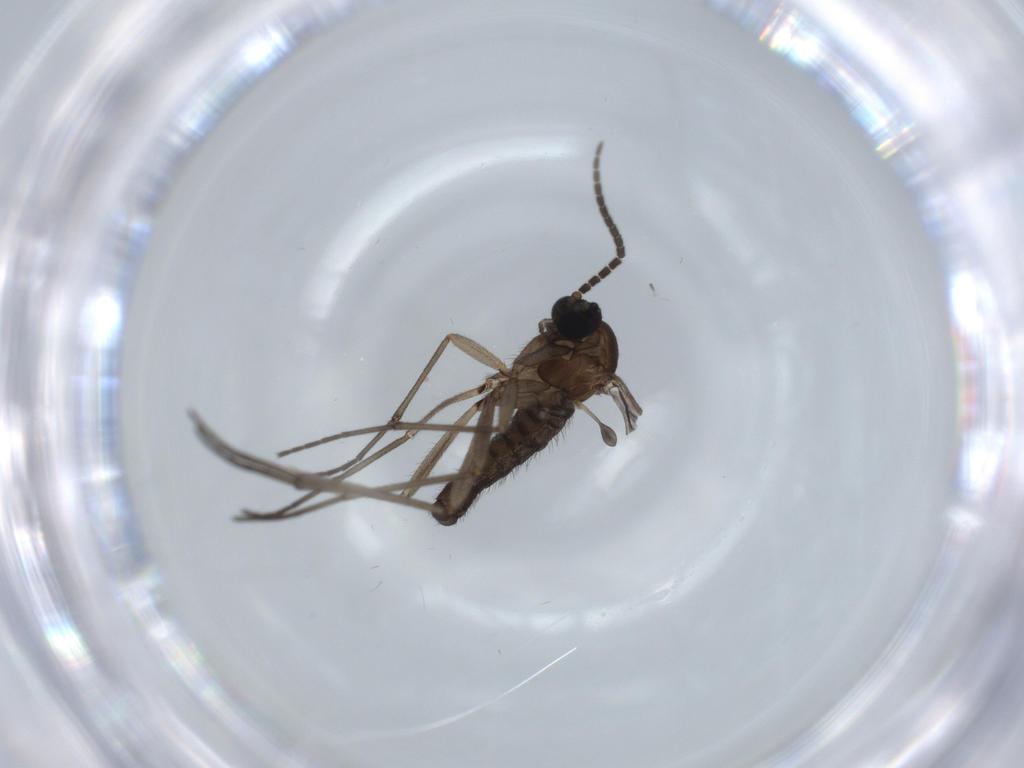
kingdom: Animalia
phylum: Arthropoda
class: Insecta
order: Diptera
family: Sciaridae
